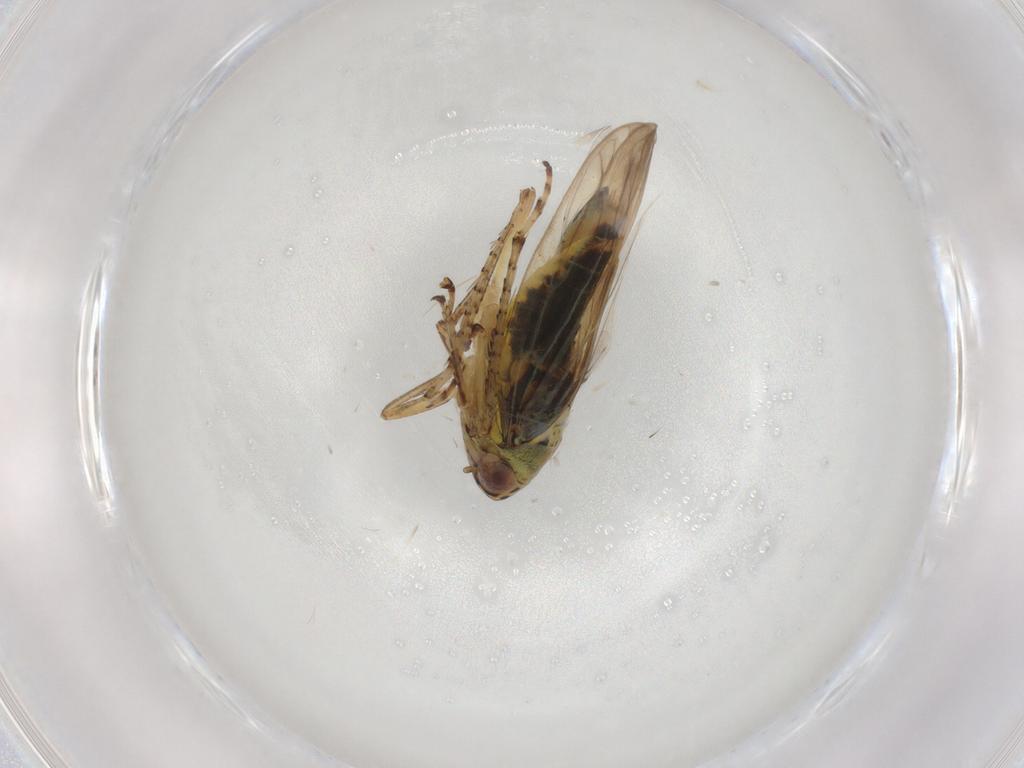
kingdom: Animalia
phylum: Arthropoda
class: Insecta
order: Hemiptera
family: Cicadellidae
